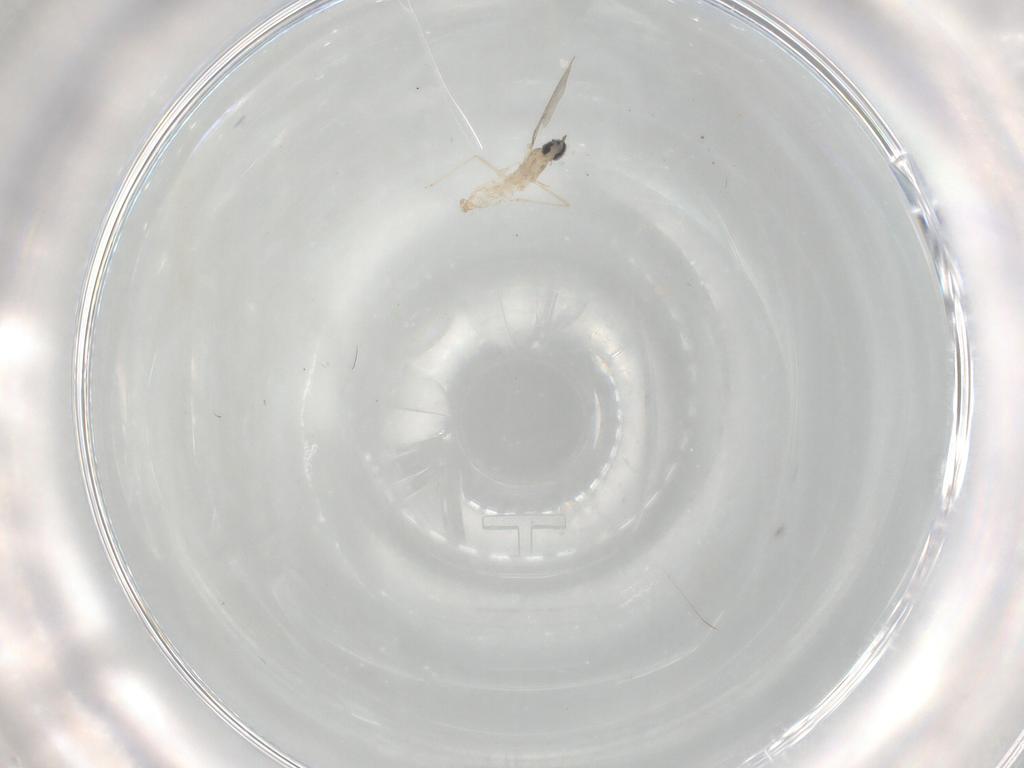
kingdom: Animalia
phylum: Arthropoda
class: Insecta
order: Diptera
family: Cecidomyiidae
